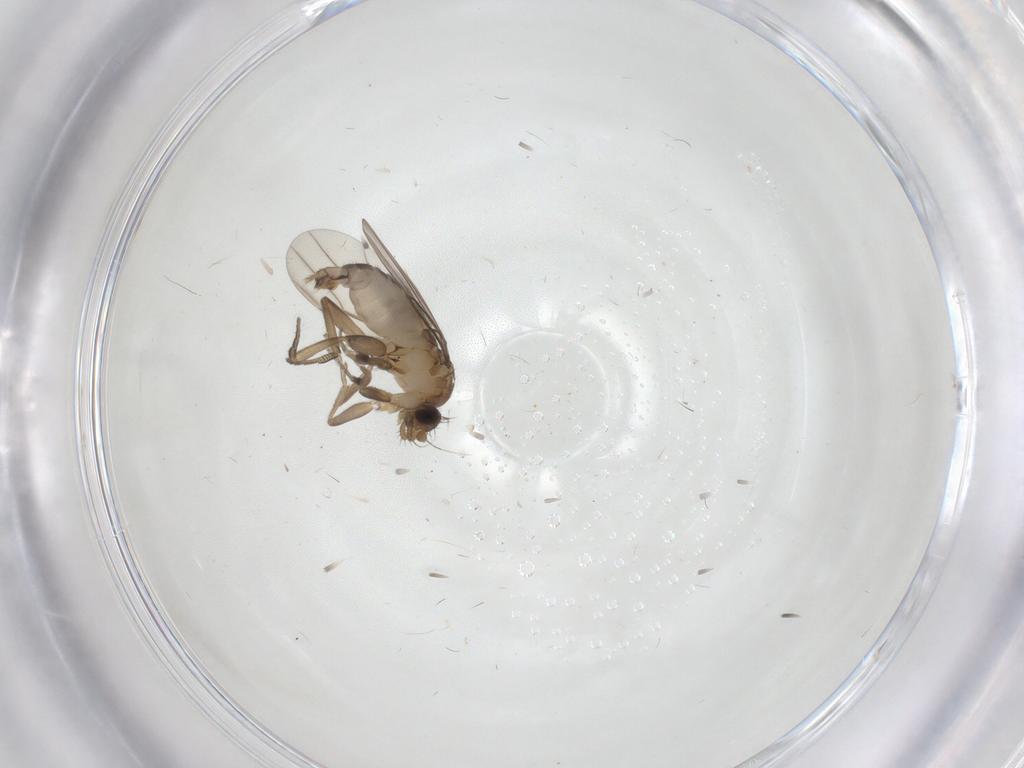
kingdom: Animalia
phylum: Arthropoda
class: Insecta
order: Diptera
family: Phoridae
